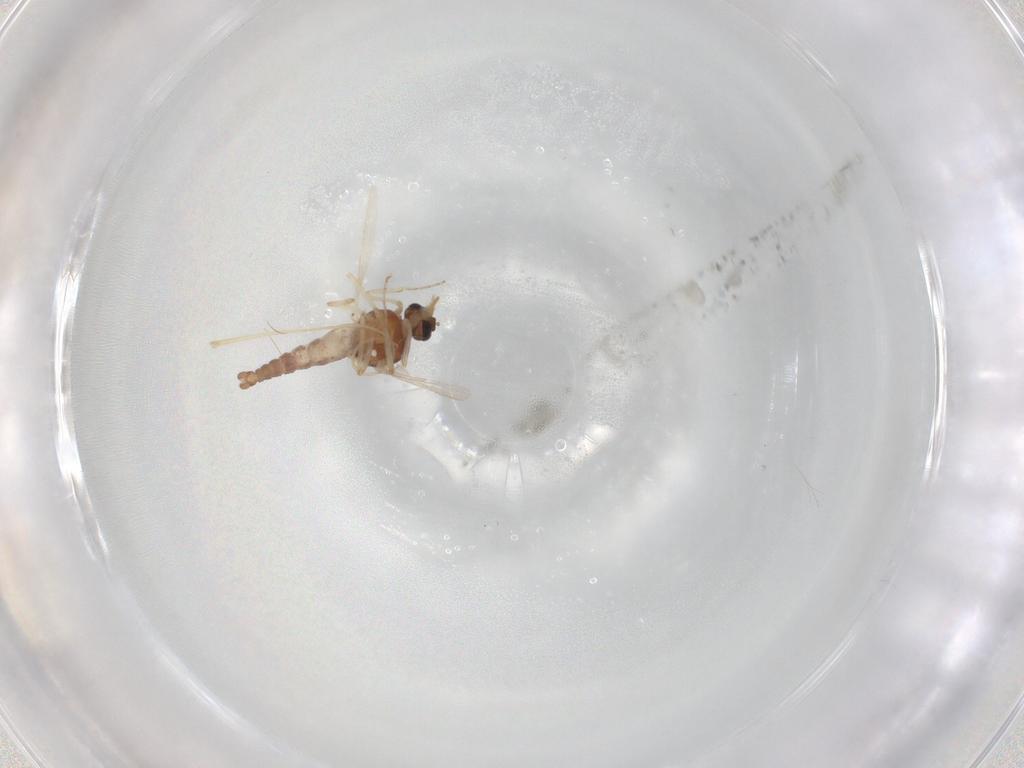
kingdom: Animalia
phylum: Arthropoda
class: Insecta
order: Diptera
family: Ceratopogonidae
